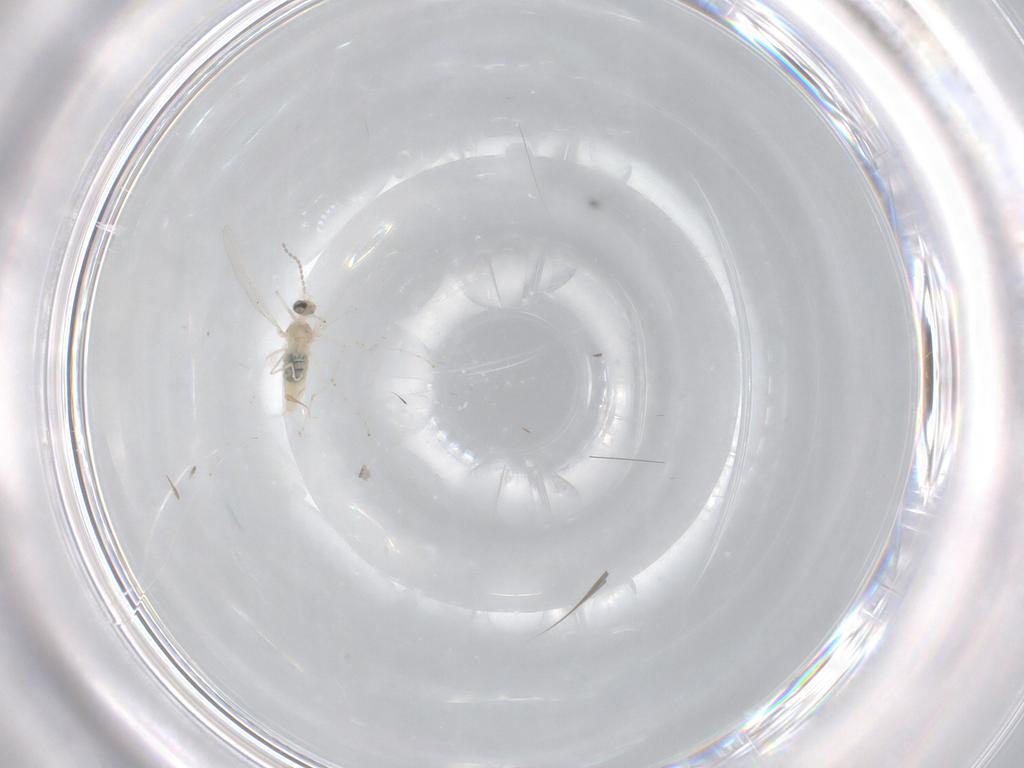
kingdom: Animalia
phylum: Arthropoda
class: Insecta
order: Diptera
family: Cecidomyiidae
